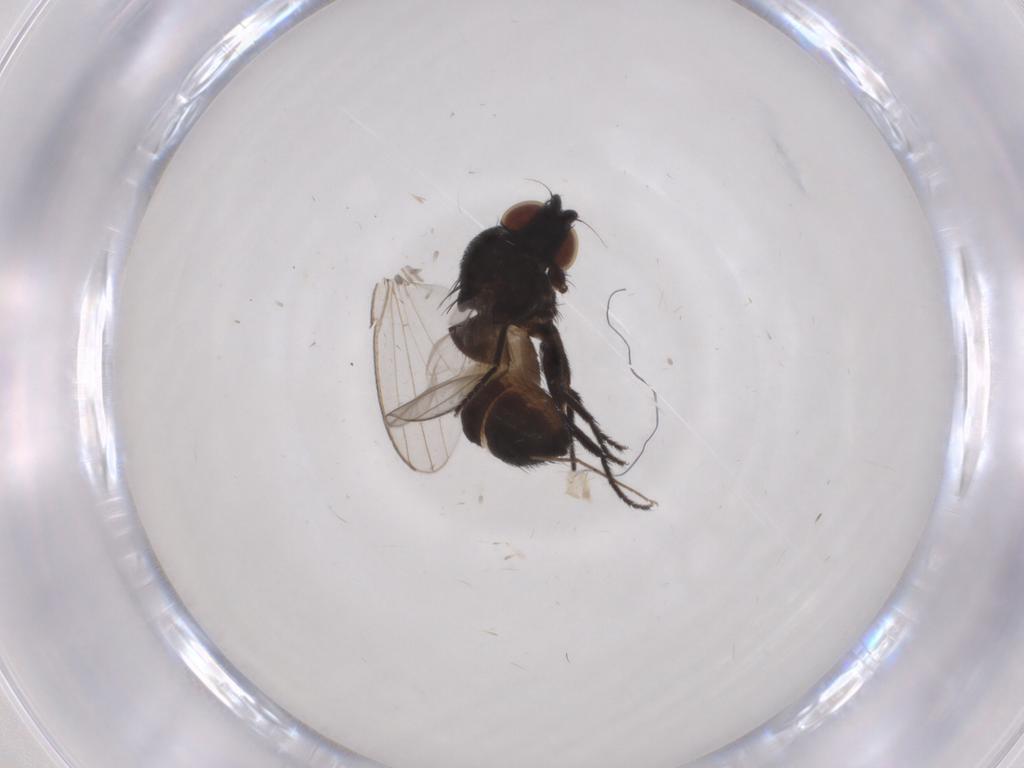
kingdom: Animalia
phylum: Arthropoda
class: Insecta
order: Diptera
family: Milichiidae
